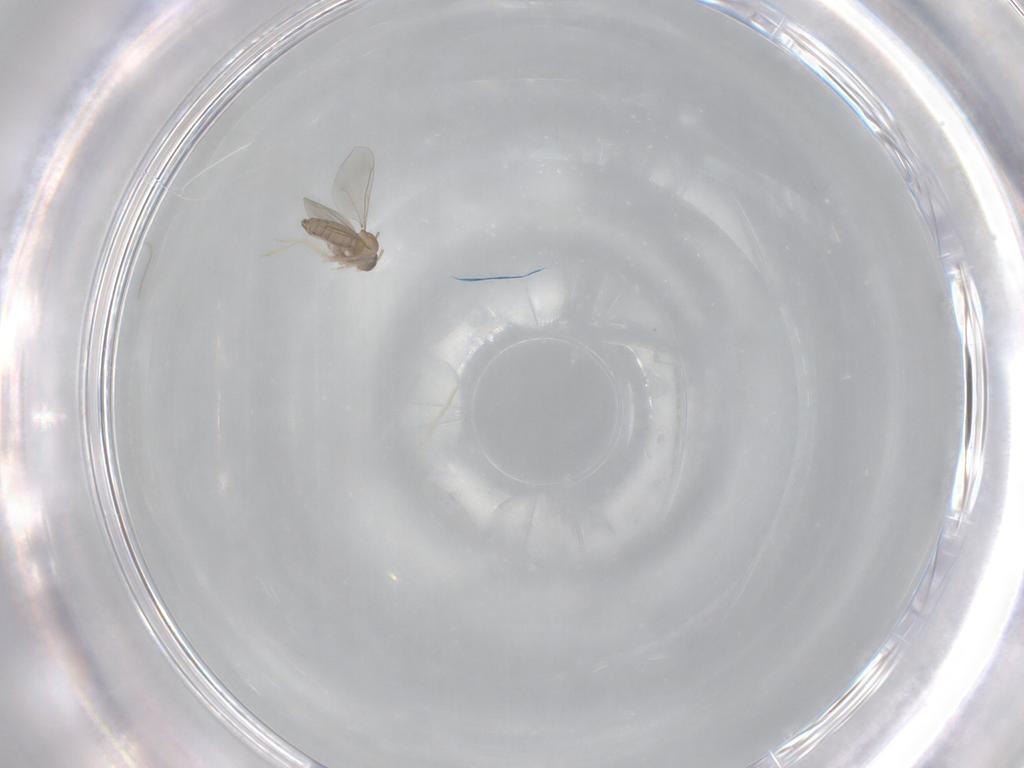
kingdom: Animalia
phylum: Arthropoda
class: Insecta
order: Diptera
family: Cecidomyiidae
